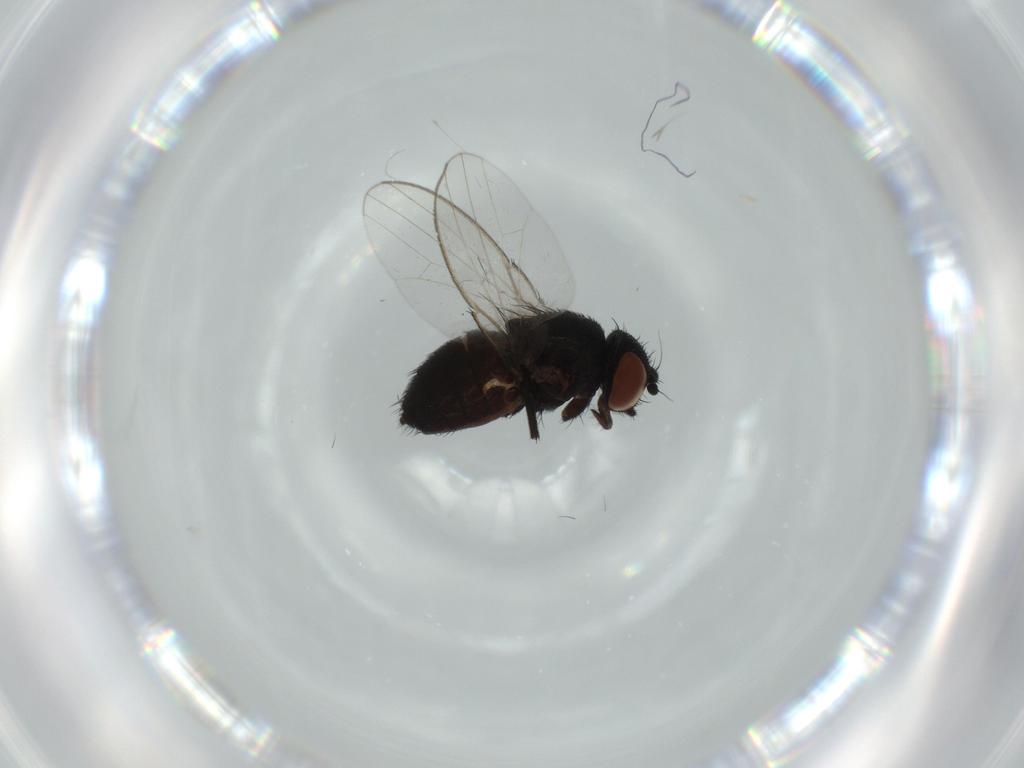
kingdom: Animalia
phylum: Arthropoda
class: Insecta
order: Diptera
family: Milichiidae
